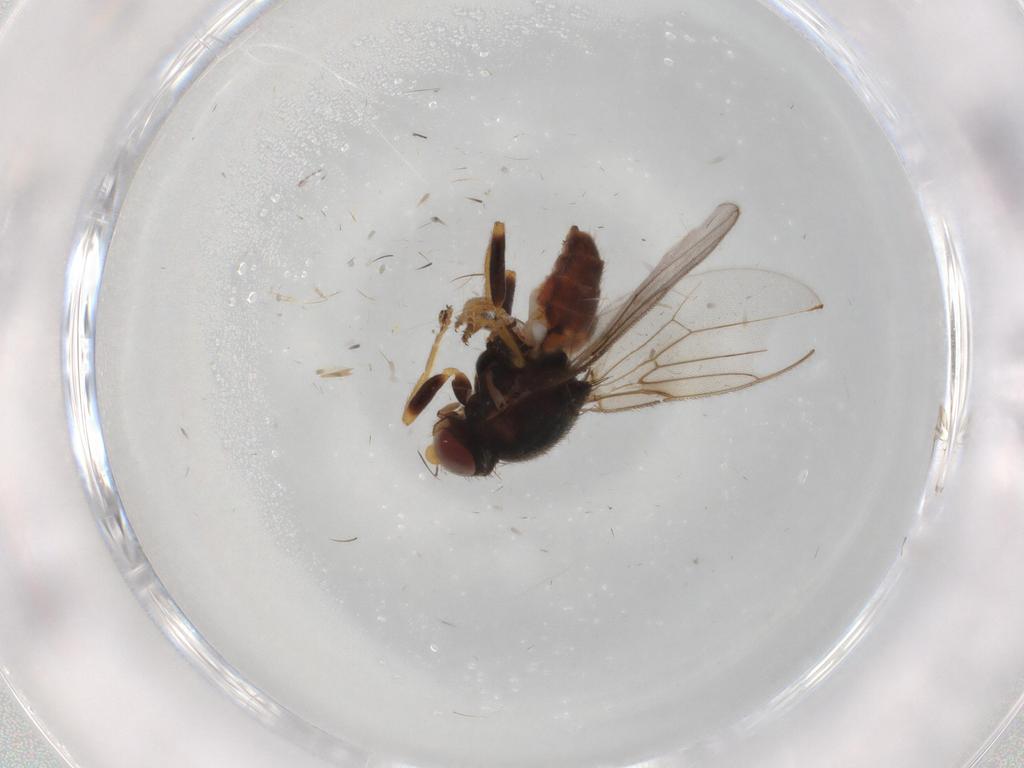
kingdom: Animalia
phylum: Arthropoda
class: Insecta
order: Diptera
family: Chloropidae
